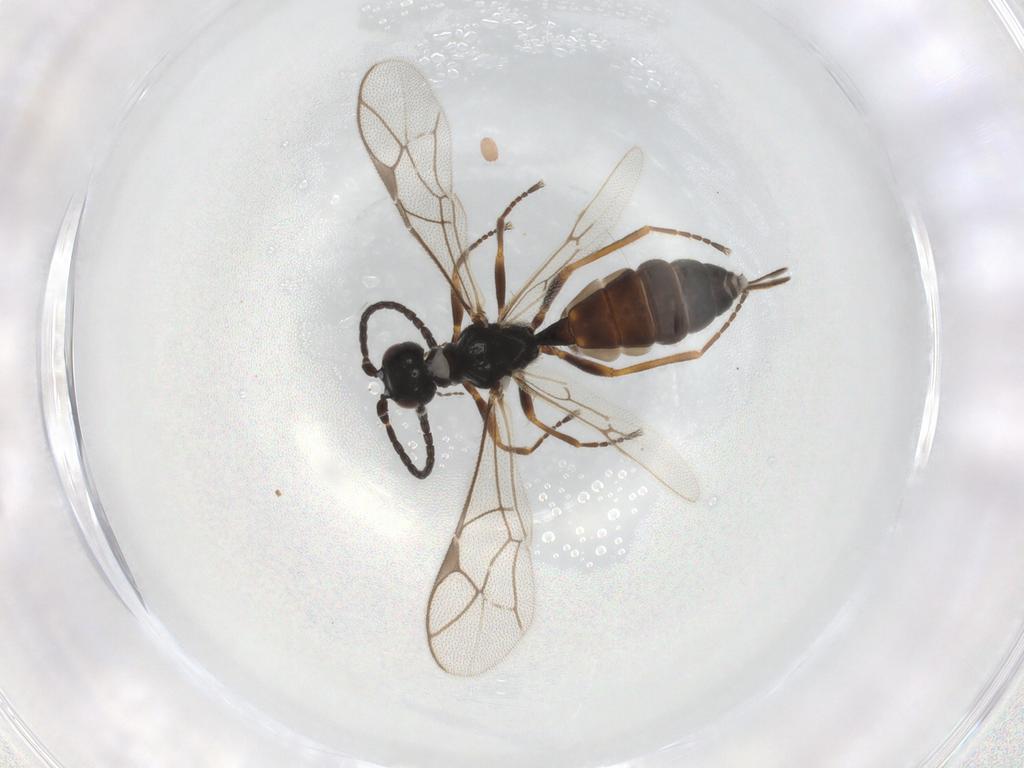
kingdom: Animalia
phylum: Arthropoda
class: Insecta
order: Hymenoptera
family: Ichneumonidae
